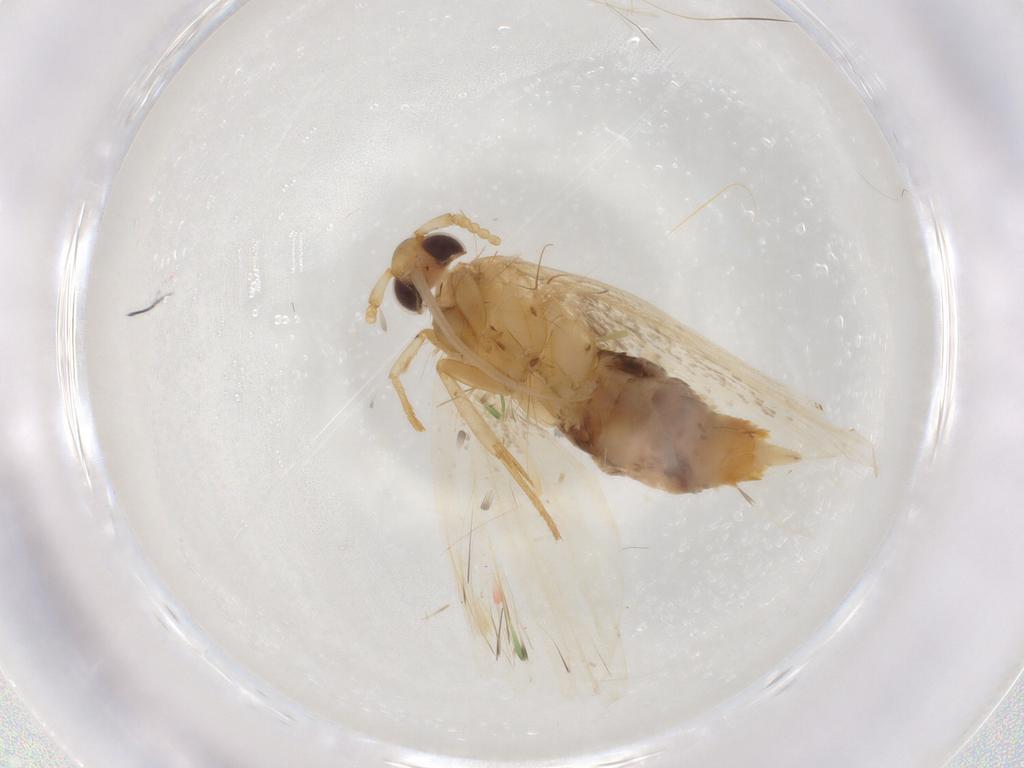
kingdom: Animalia
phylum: Arthropoda
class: Insecta
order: Lepidoptera
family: Lecithoceridae
